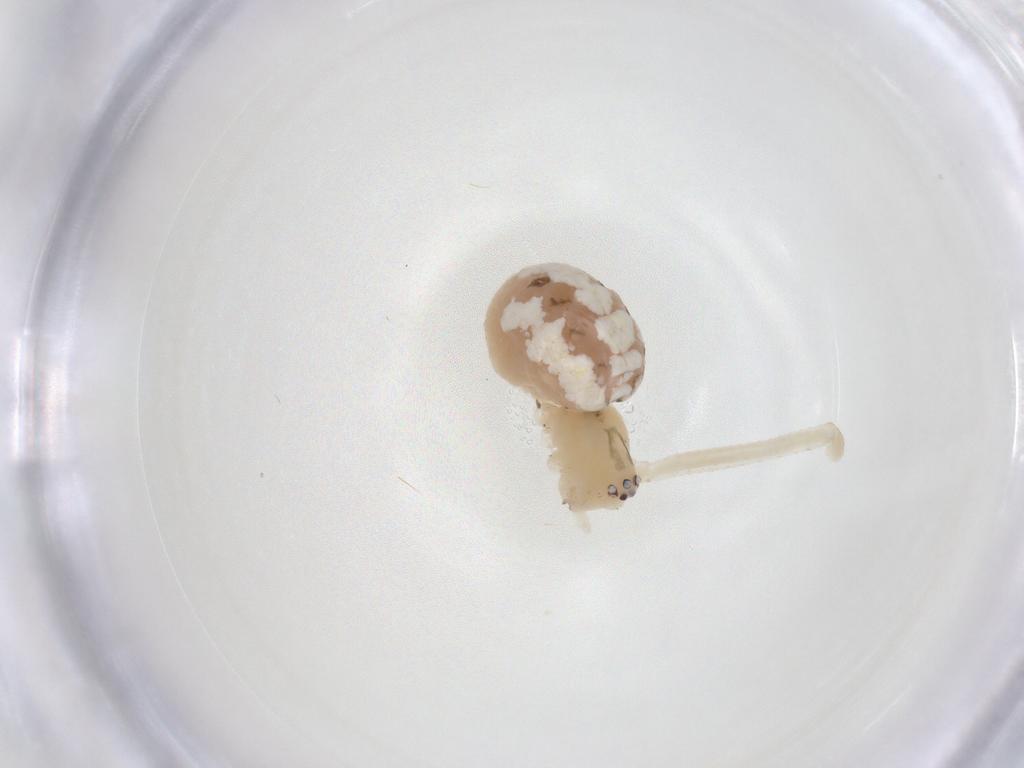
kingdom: Animalia
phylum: Arthropoda
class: Arachnida
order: Araneae
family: Theridiidae
